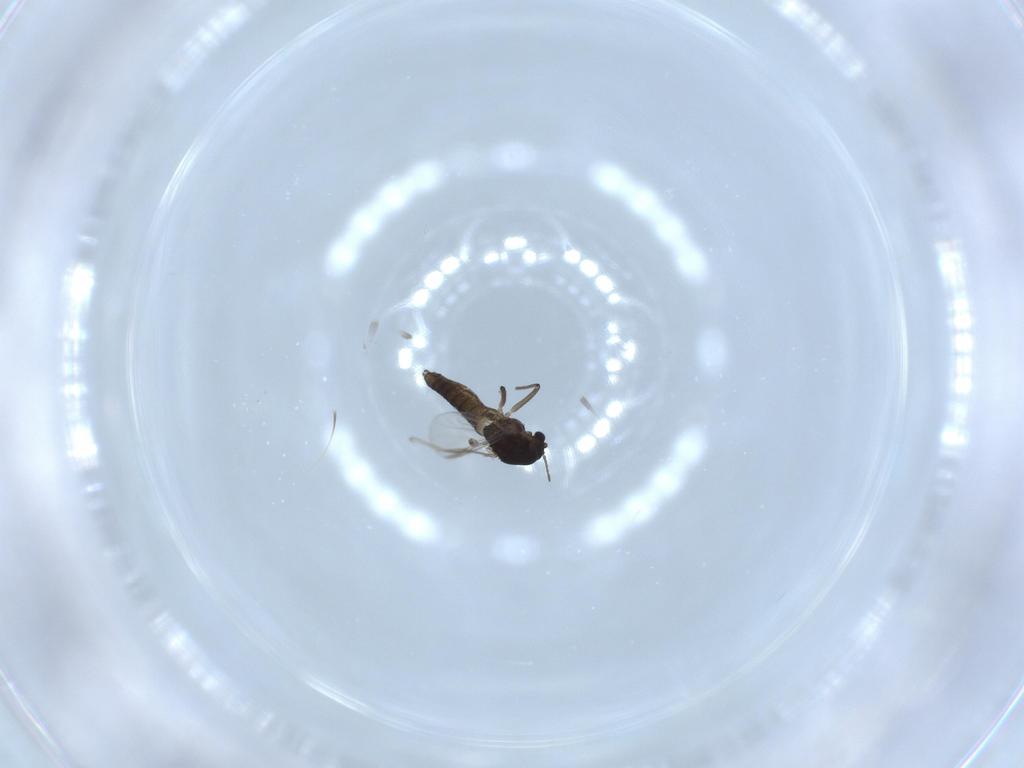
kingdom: Animalia
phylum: Arthropoda
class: Insecta
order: Diptera
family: Chironomidae
